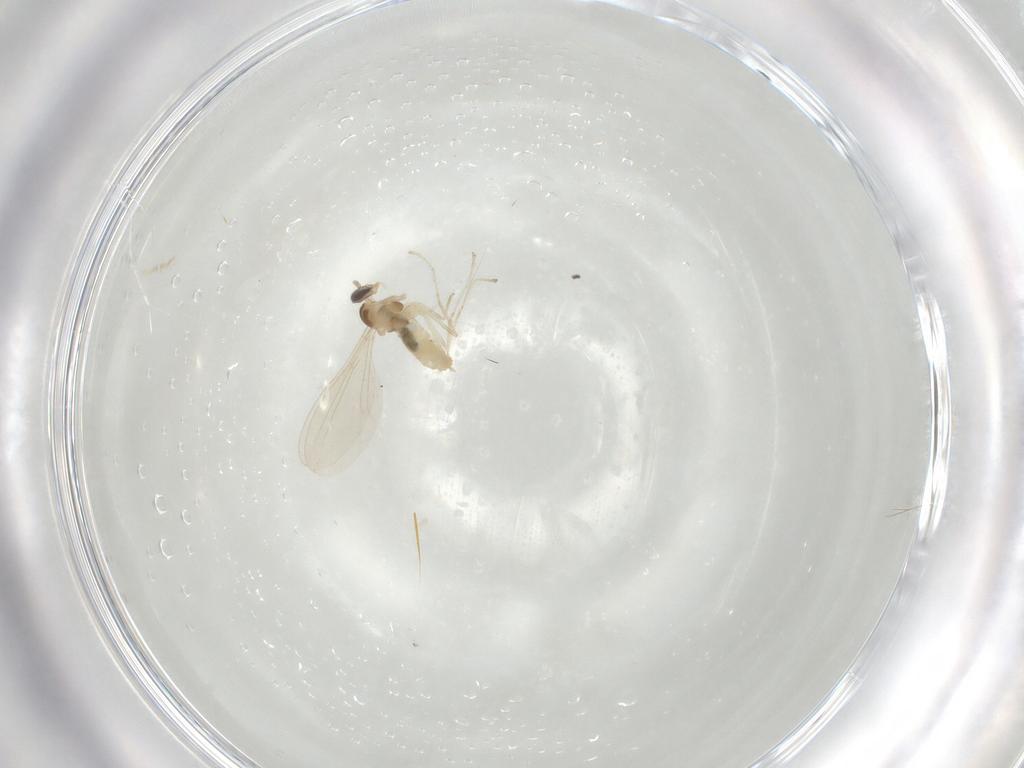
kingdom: Animalia
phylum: Arthropoda
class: Insecta
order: Diptera
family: Cecidomyiidae
